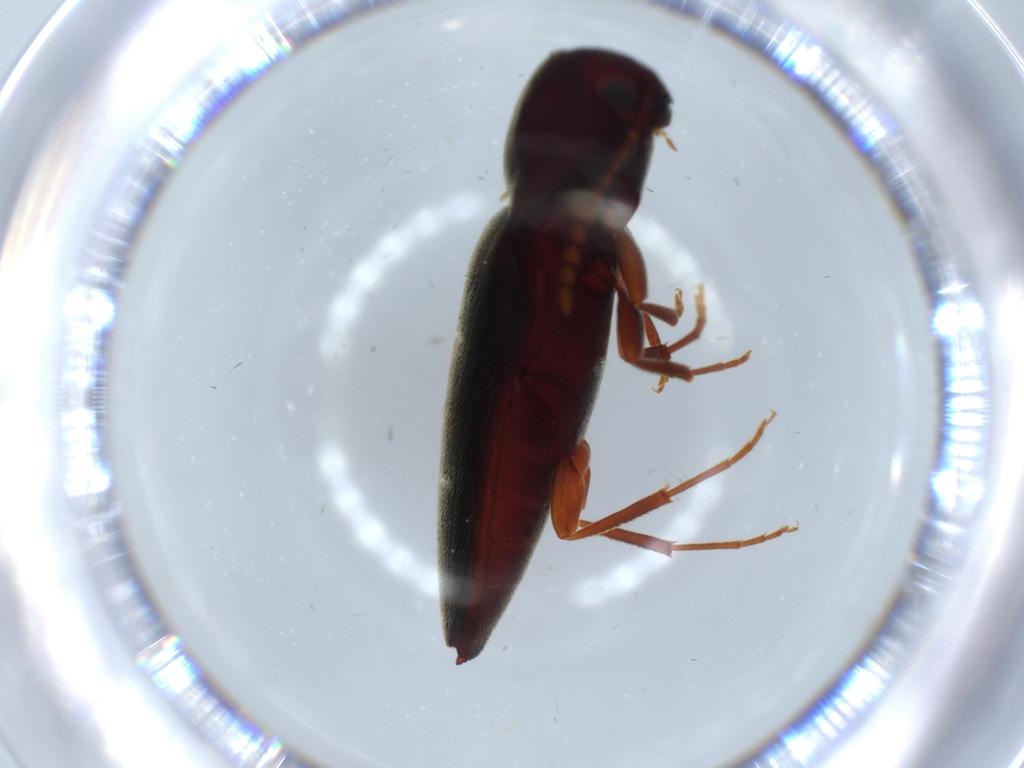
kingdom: Animalia
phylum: Arthropoda
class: Insecta
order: Coleoptera
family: Eucnemidae
